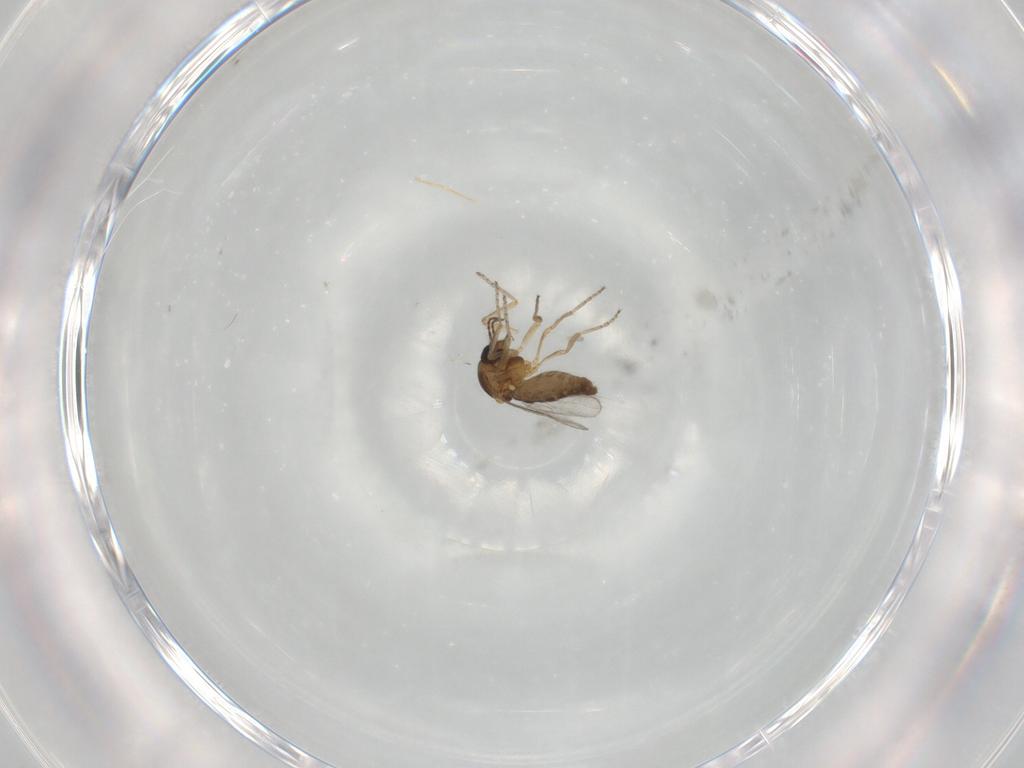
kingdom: Animalia
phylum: Arthropoda
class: Insecta
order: Diptera
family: Ceratopogonidae
